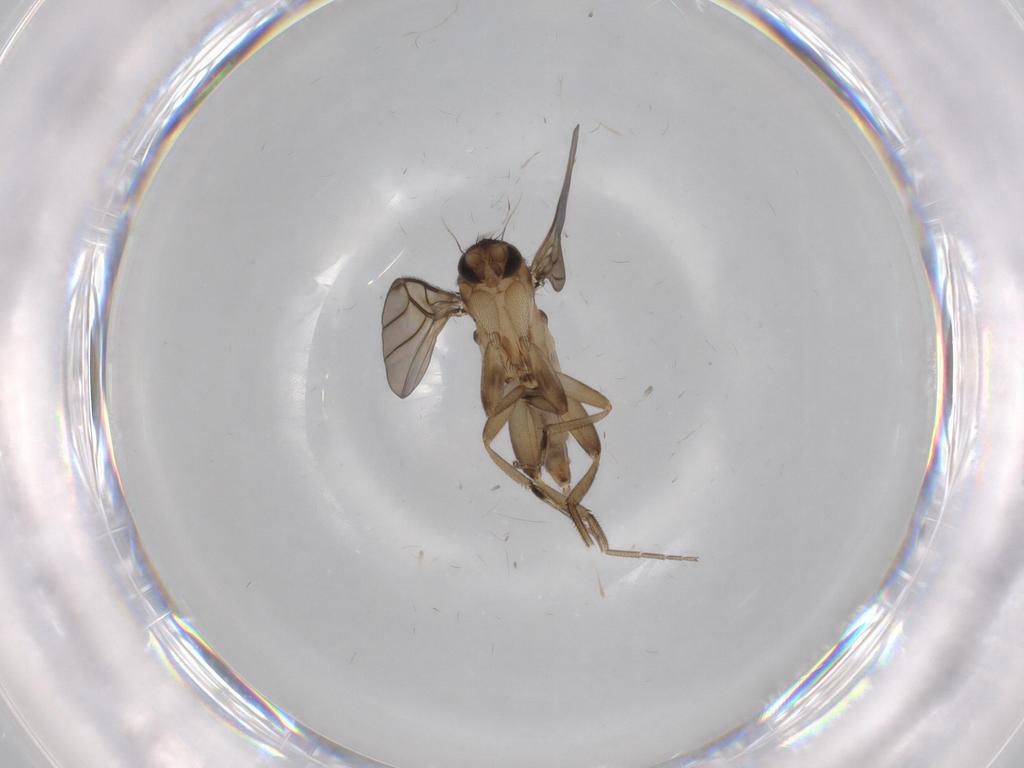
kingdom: Animalia
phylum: Arthropoda
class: Insecta
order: Diptera
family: Phoridae
